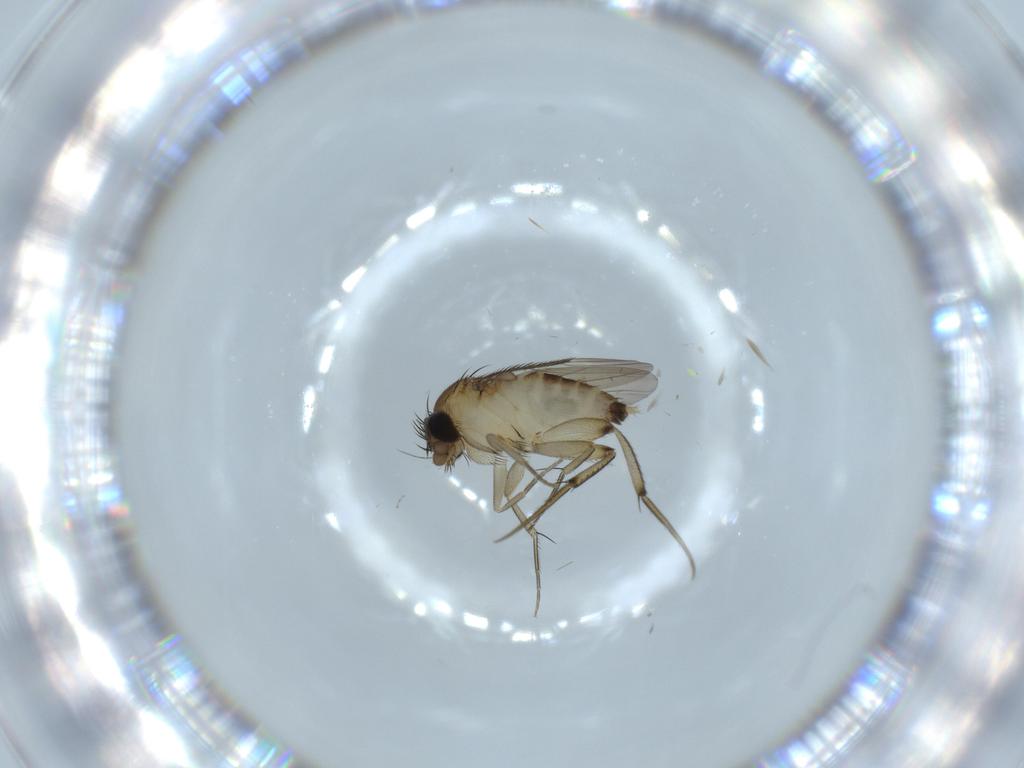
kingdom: Animalia
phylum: Arthropoda
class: Insecta
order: Diptera
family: Phoridae
